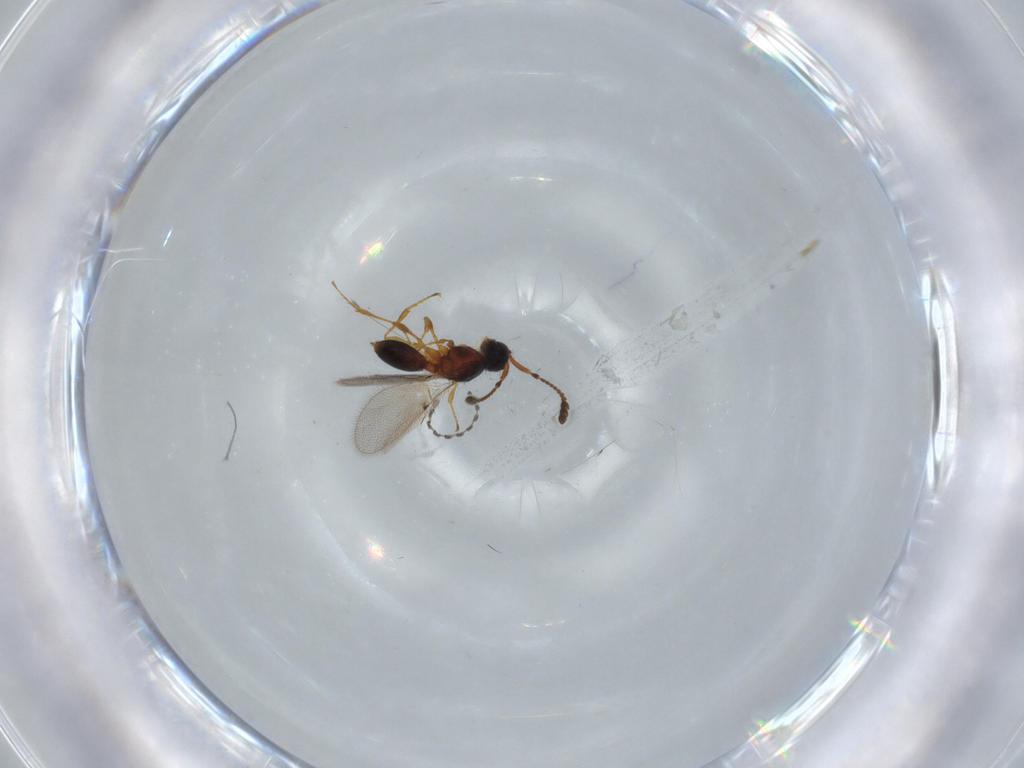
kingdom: Animalia
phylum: Arthropoda
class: Insecta
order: Hymenoptera
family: Diapriidae
